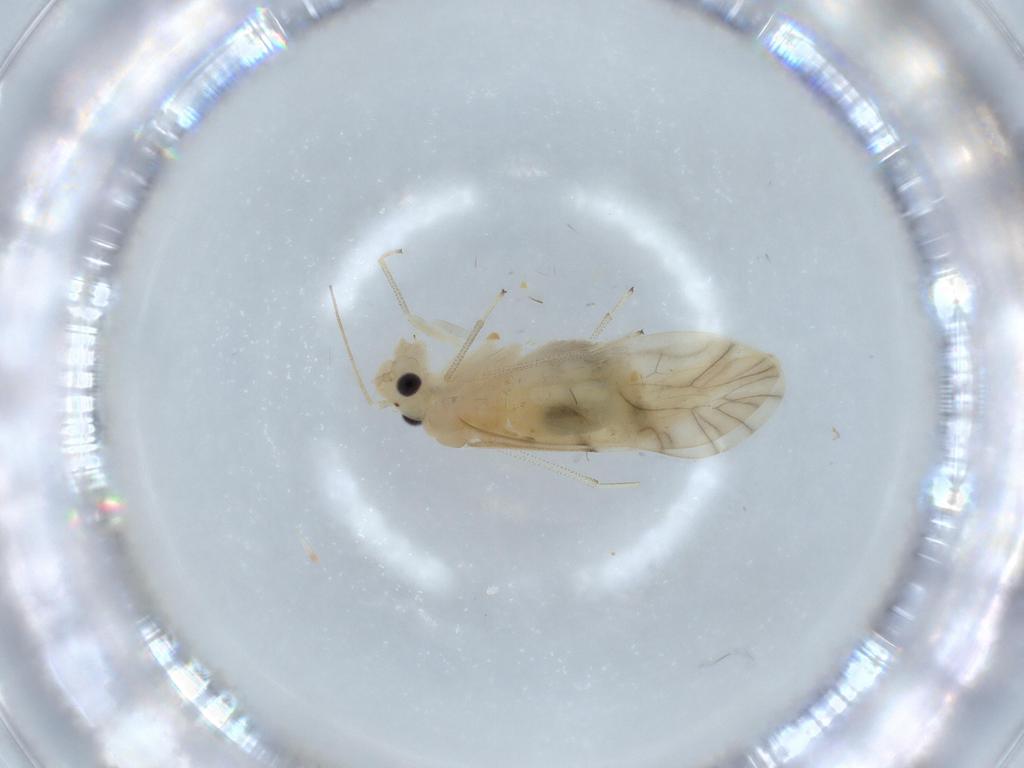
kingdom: Animalia
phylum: Arthropoda
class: Insecta
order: Psocodea
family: Caeciliusidae
